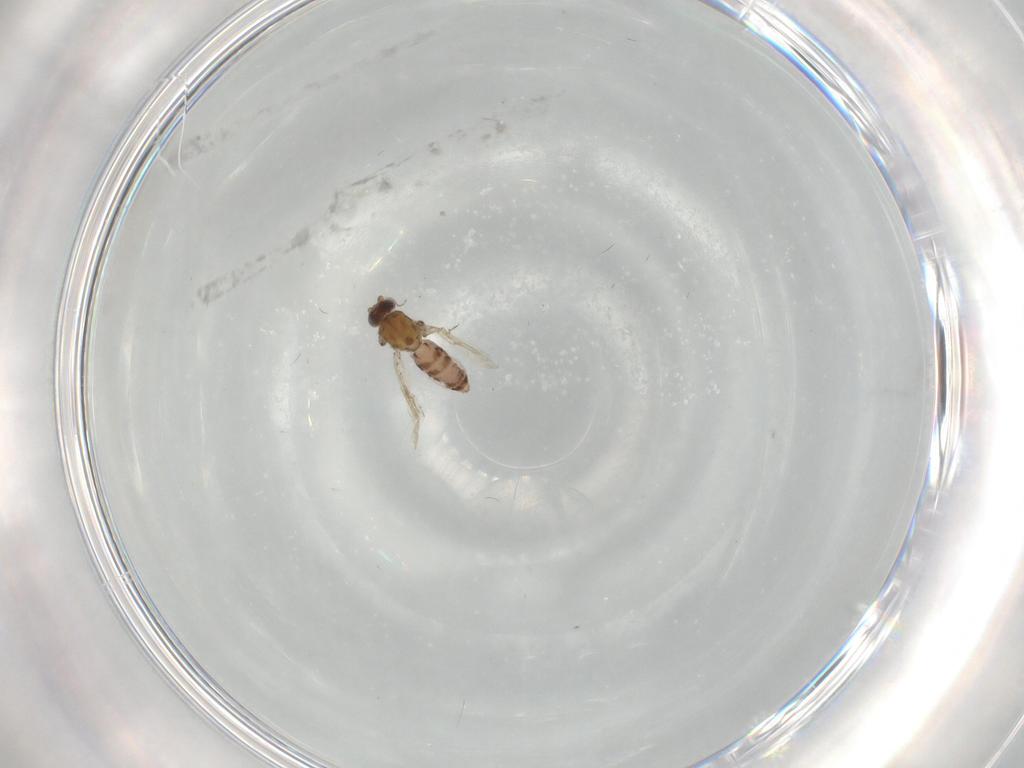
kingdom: Animalia
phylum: Arthropoda
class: Insecta
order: Diptera
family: Ceratopogonidae
